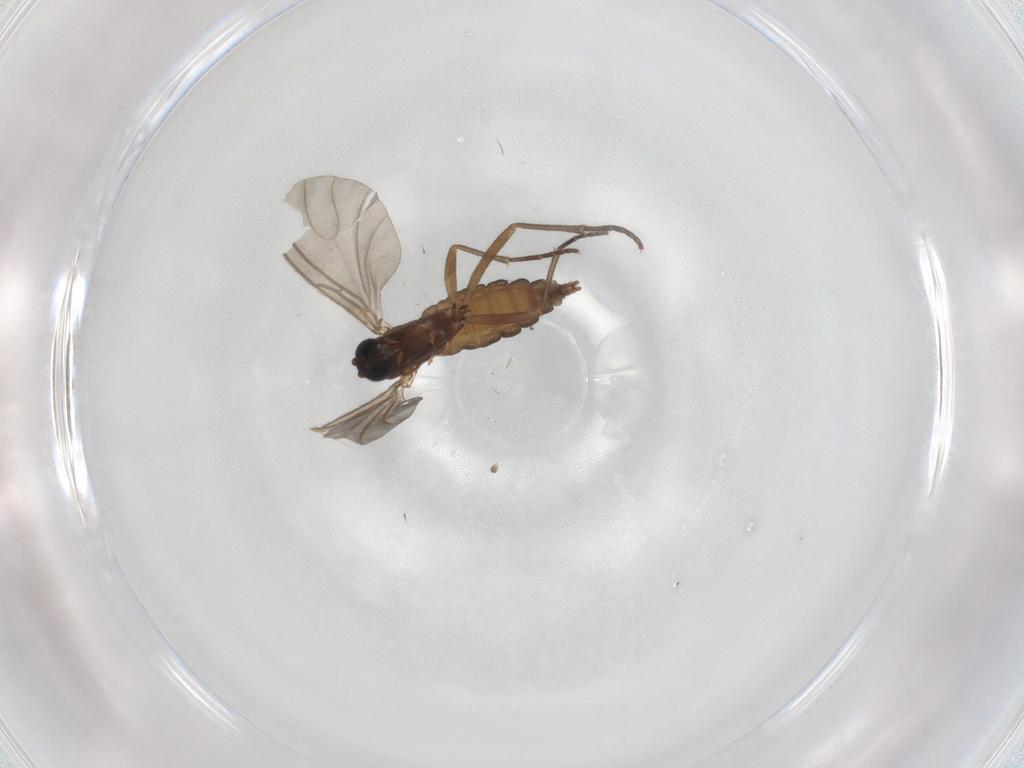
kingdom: Animalia
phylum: Arthropoda
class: Insecta
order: Diptera
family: Sciaridae
